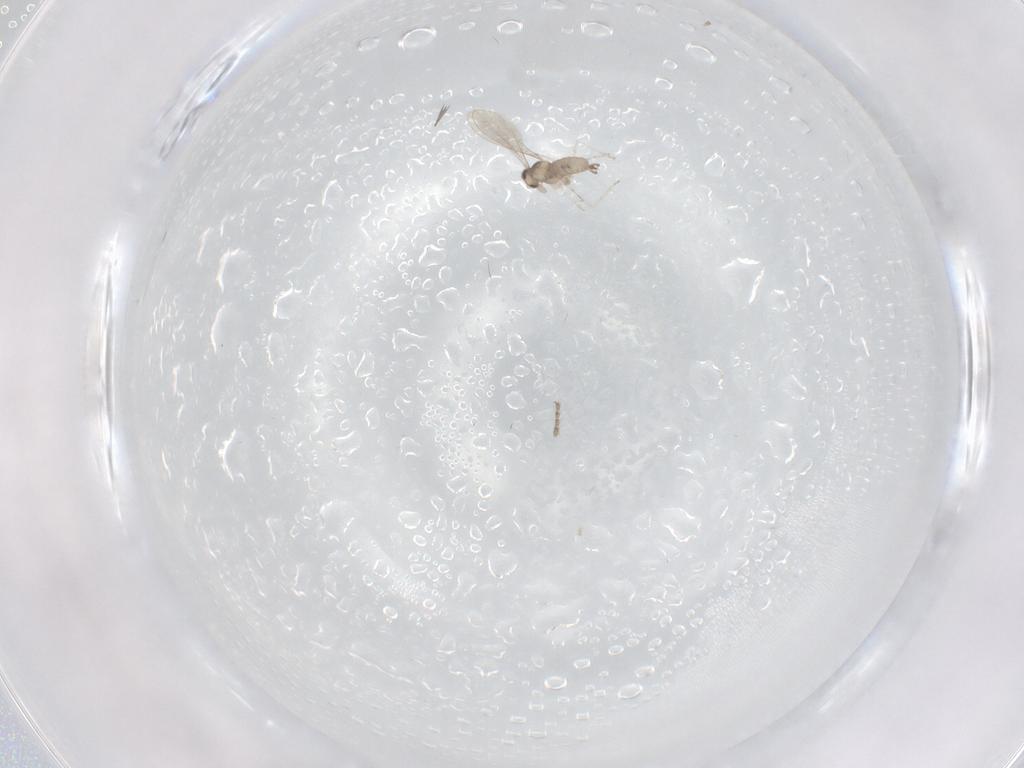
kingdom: Animalia
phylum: Arthropoda
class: Insecta
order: Diptera
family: Cecidomyiidae
